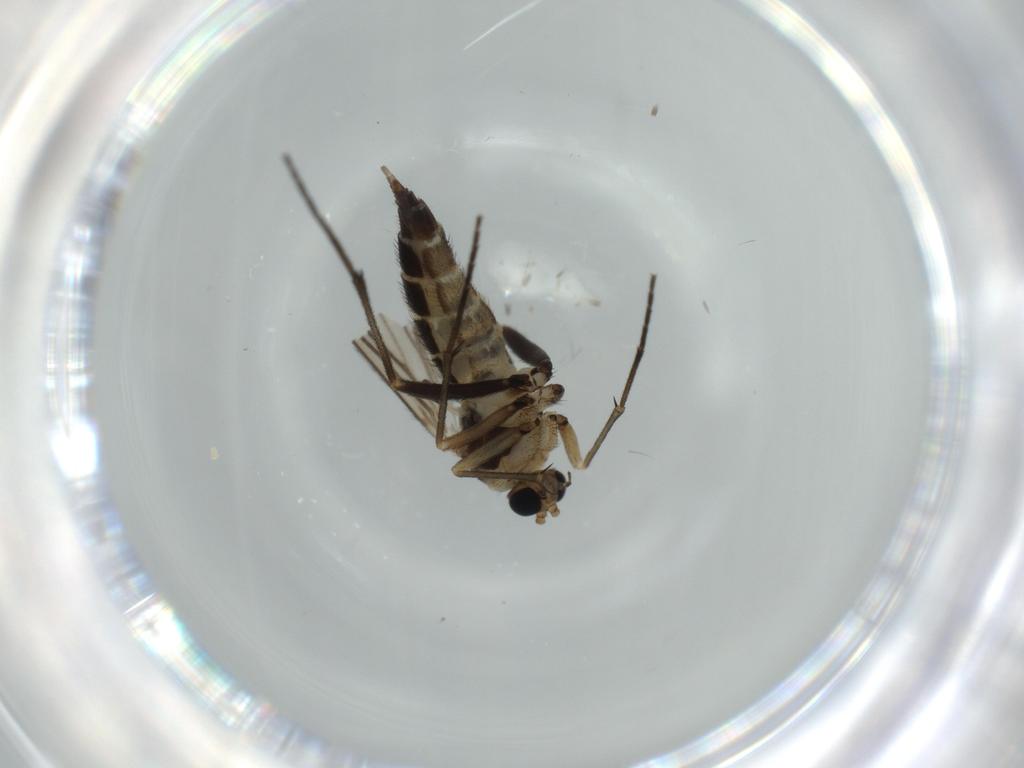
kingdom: Animalia
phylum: Arthropoda
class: Insecta
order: Diptera
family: Sciaridae
